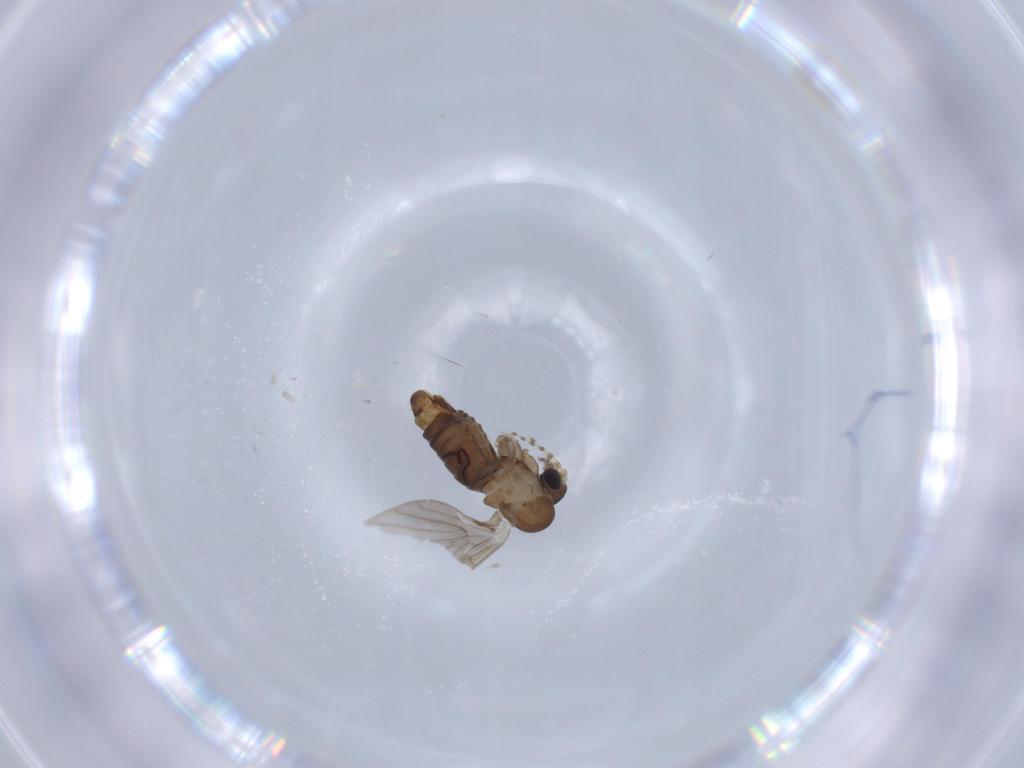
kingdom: Animalia
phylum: Arthropoda
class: Insecta
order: Diptera
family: Psychodidae
